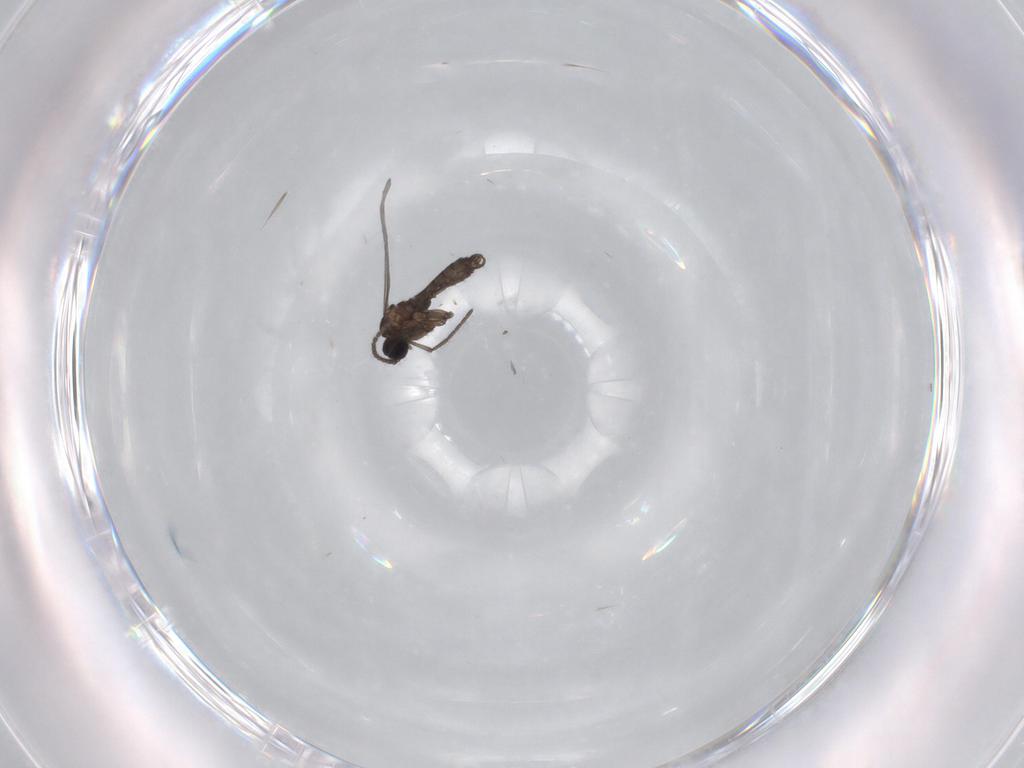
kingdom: Animalia
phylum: Arthropoda
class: Insecta
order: Diptera
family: Sciaridae
